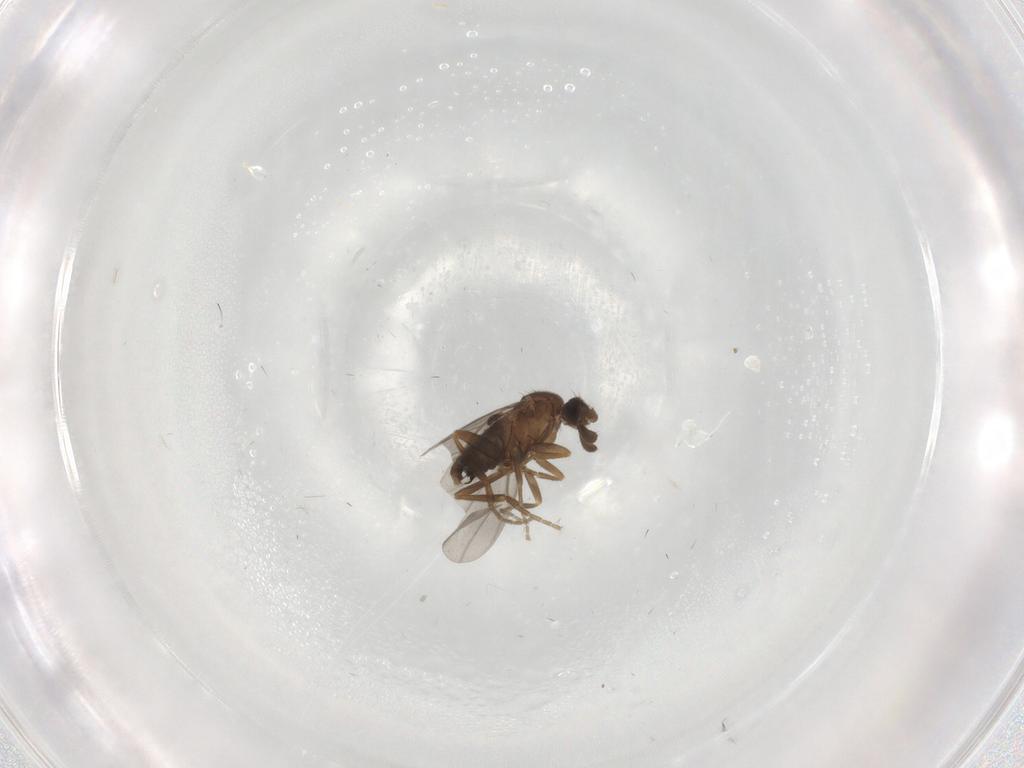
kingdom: Animalia
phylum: Arthropoda
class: Insecta
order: Diptera
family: Phoridae
